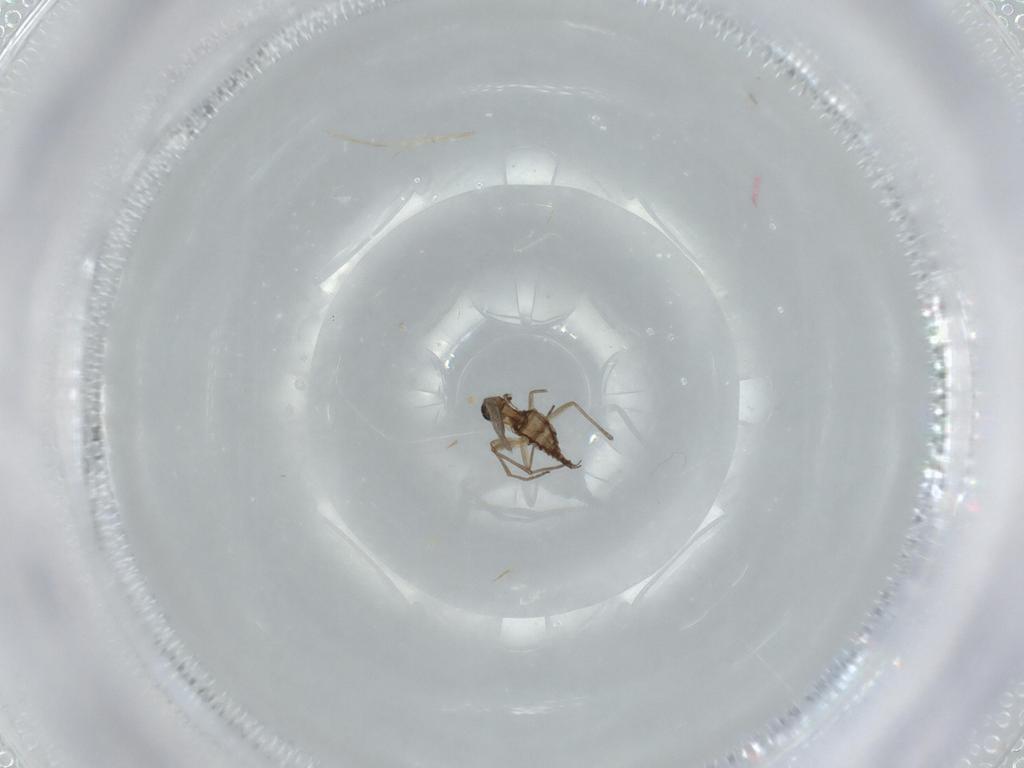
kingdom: Animalia
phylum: Arthropoda
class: Insecta
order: Diptera
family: Sciaridae
